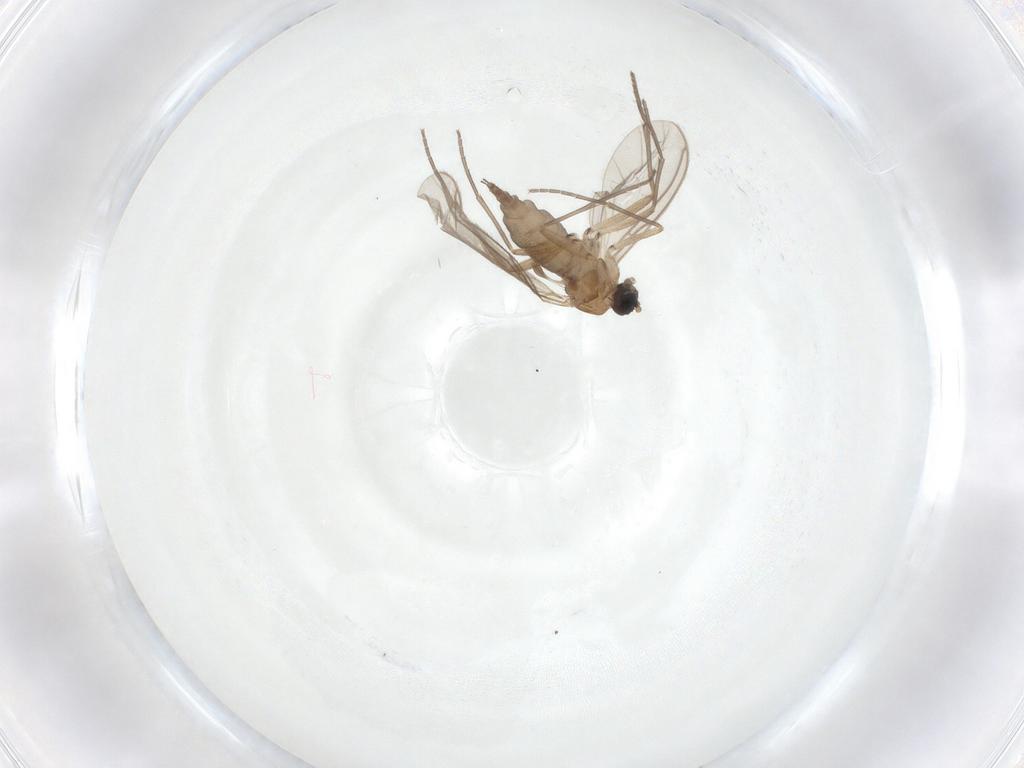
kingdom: Animalia
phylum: Arthropoda
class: Insecta
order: Diptera
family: Sciaridae
